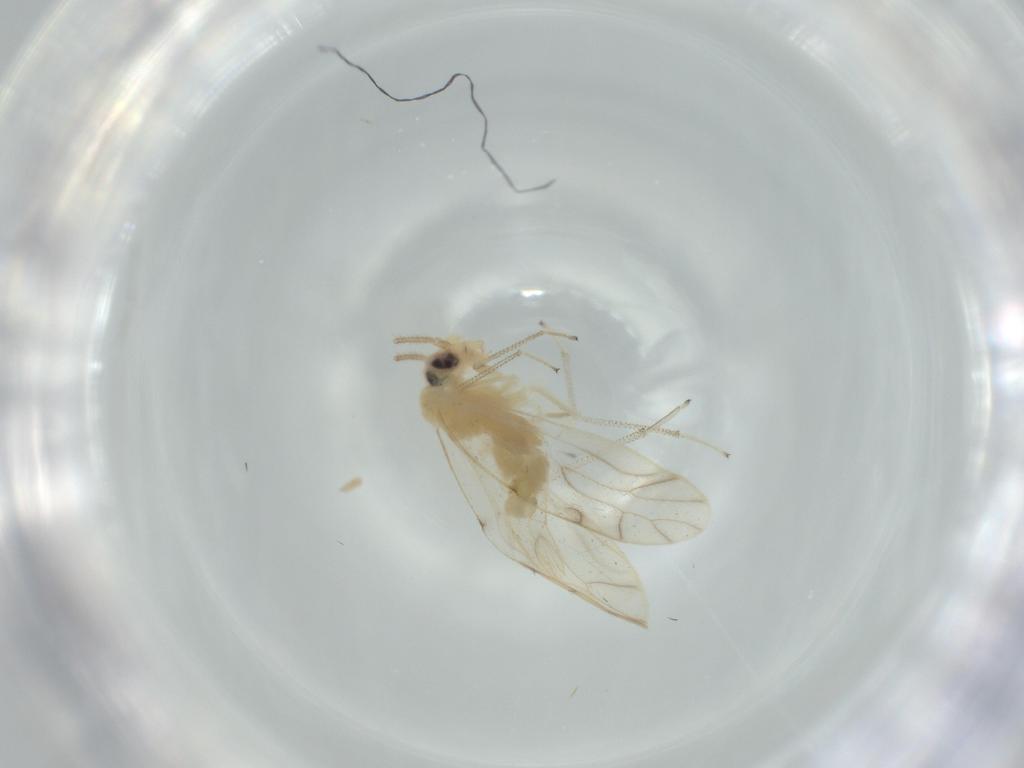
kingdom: Animalia
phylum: Arthropoda
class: Insecta
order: Psocodea
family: Caeciliusidae
